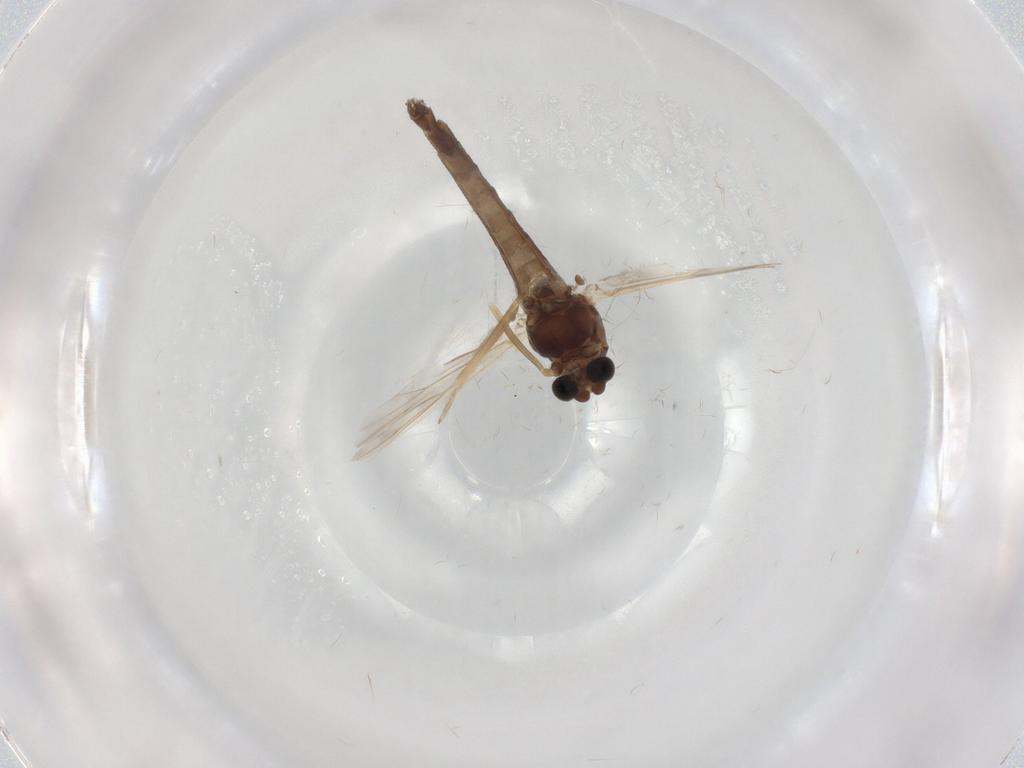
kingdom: Animalia
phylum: Arthropoda
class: Insecta
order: Diptera
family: Chironomidae
